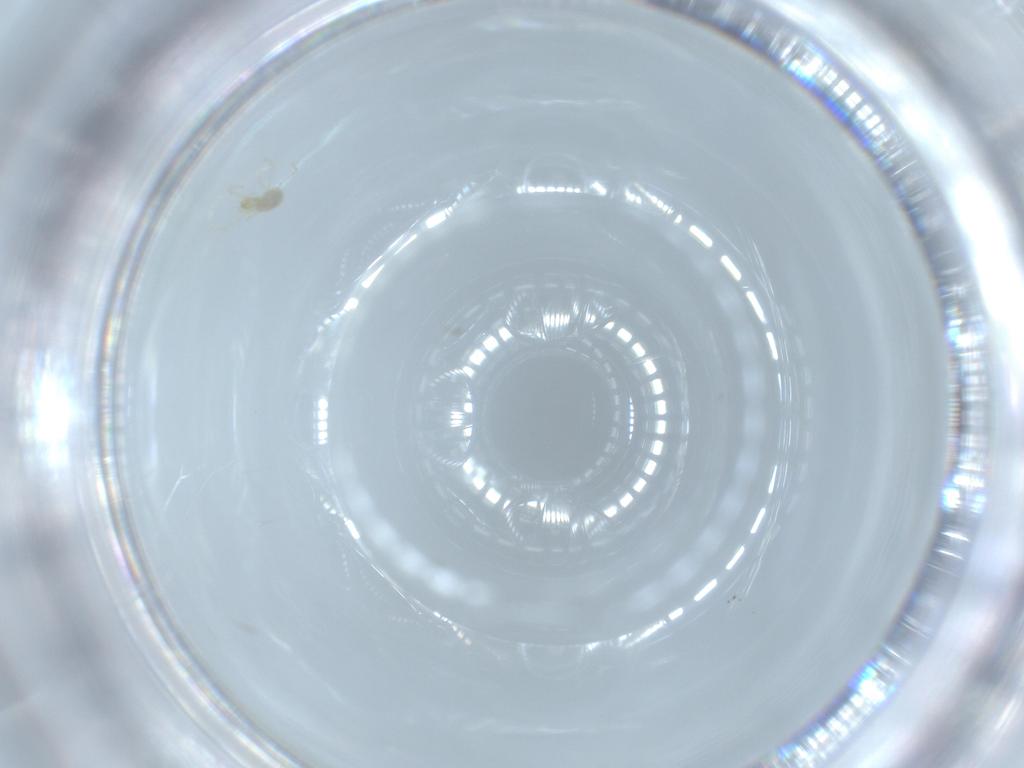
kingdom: Animalia
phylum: Arthropoda
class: Arachnida
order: Trombidiformes
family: Erythraeidae
